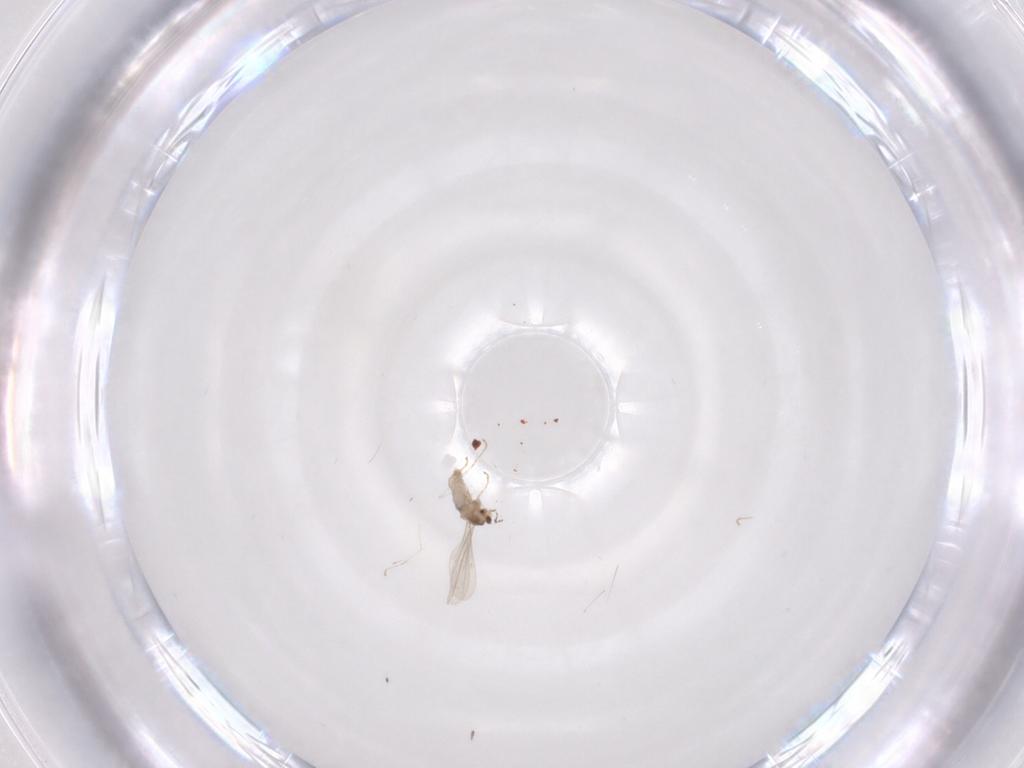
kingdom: Animalia
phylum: Arthropoda
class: Insecta
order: Diptera
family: Cecidomyiidae
